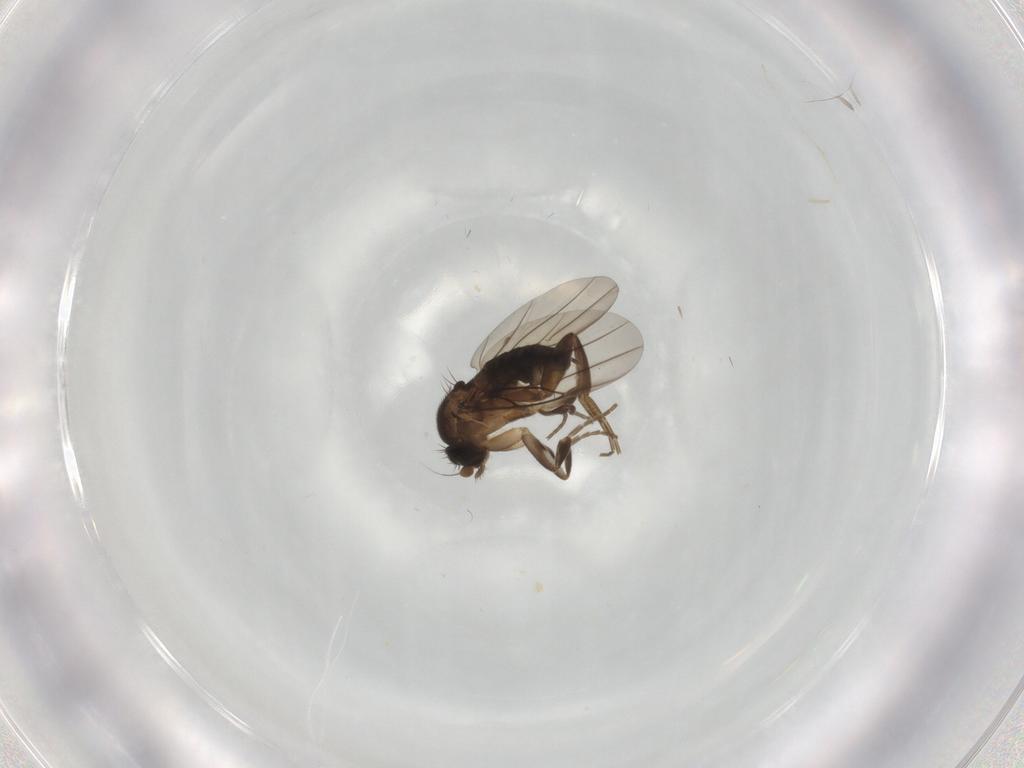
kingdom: Animalia
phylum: Arthropoda
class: Insecta
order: Diptera
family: Phoridae
